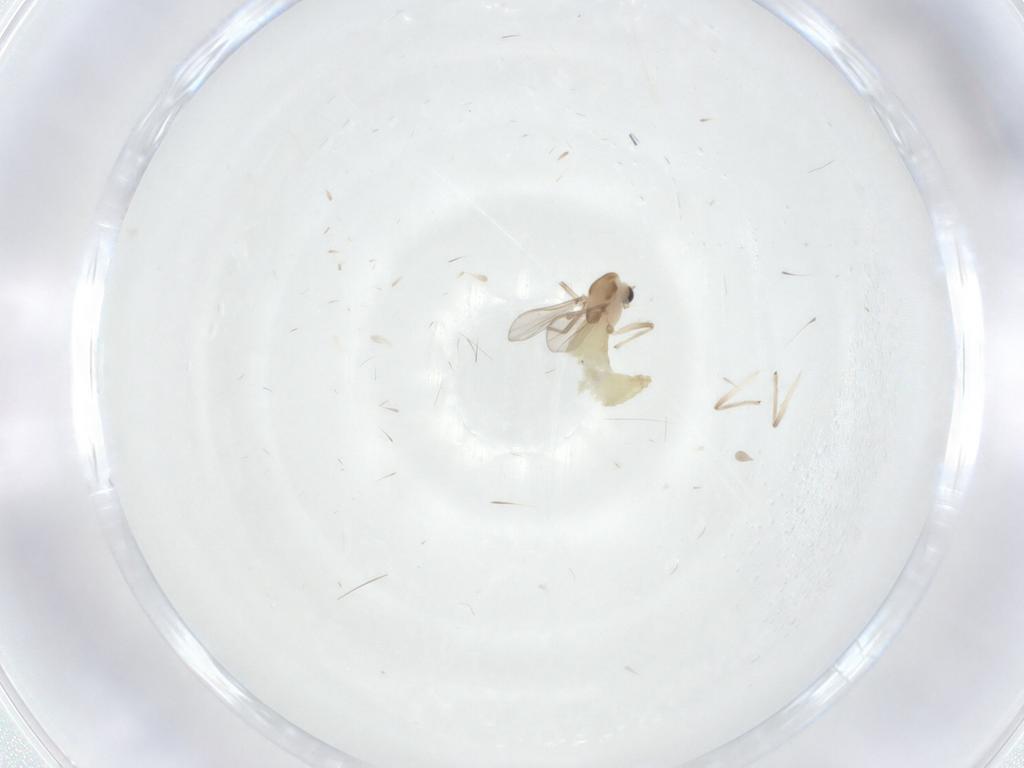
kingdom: Animalia
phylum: Arthropoda
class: Insecta
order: Diptera
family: Chironomidae
